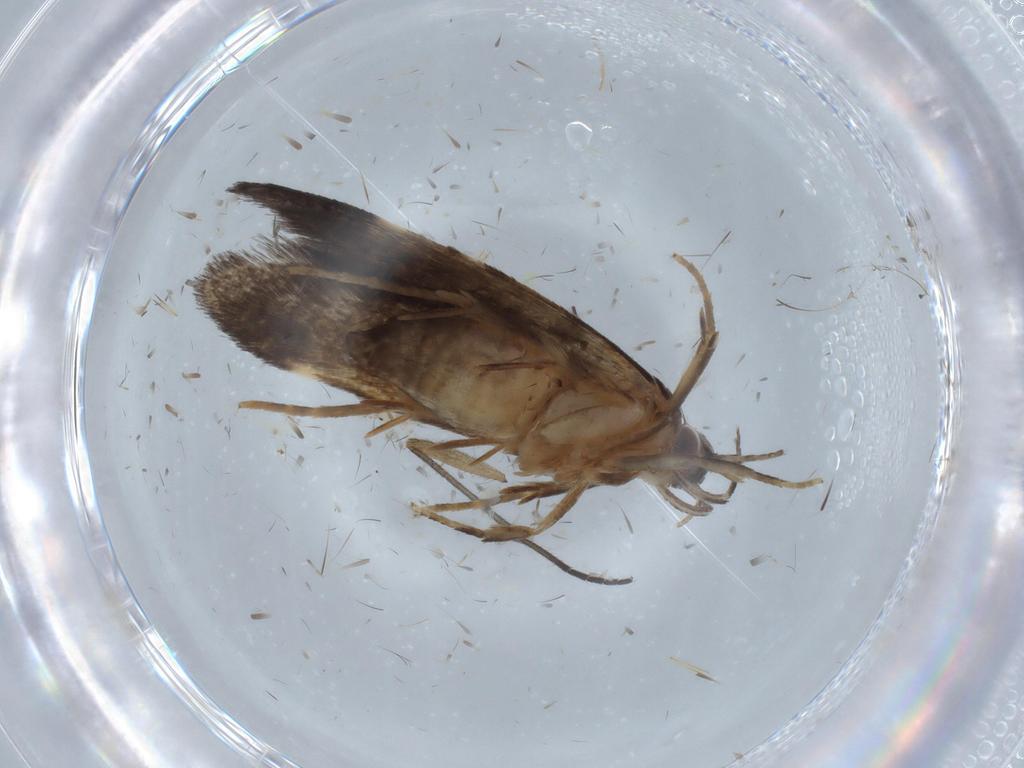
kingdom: Animalia
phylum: Arthropoda
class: Insecta
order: Lepidoptera
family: Cosmopterigidae
